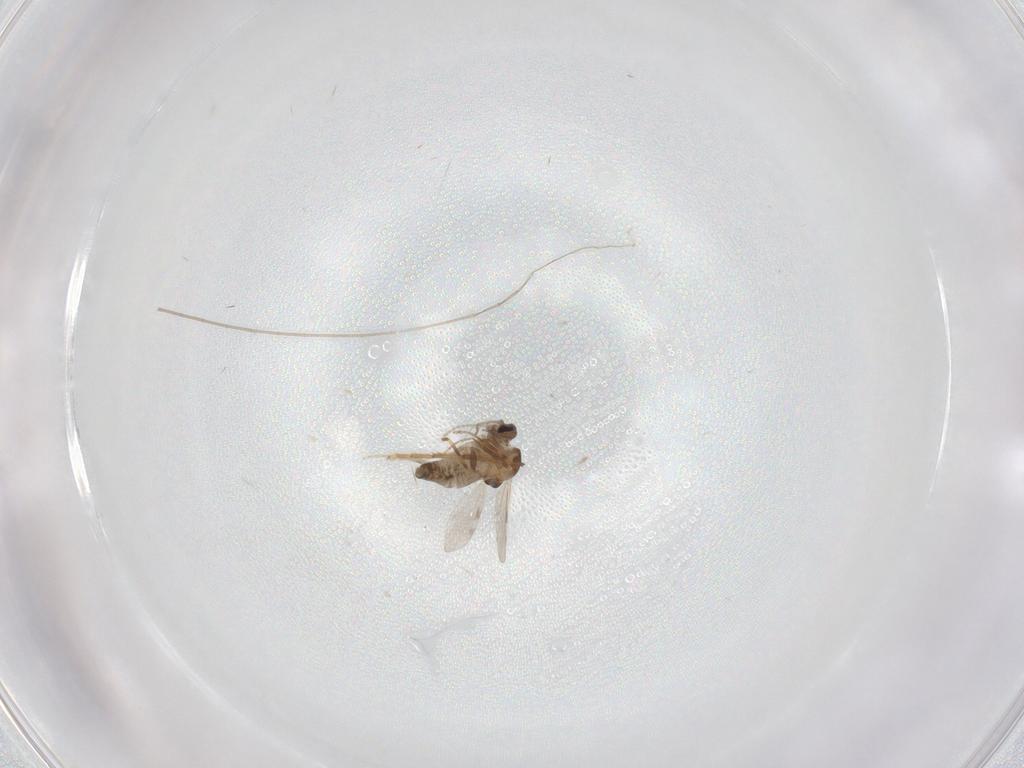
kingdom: Animalia
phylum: Arthropoda
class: Insecta
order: Diptera
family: Ceratopogonidae
